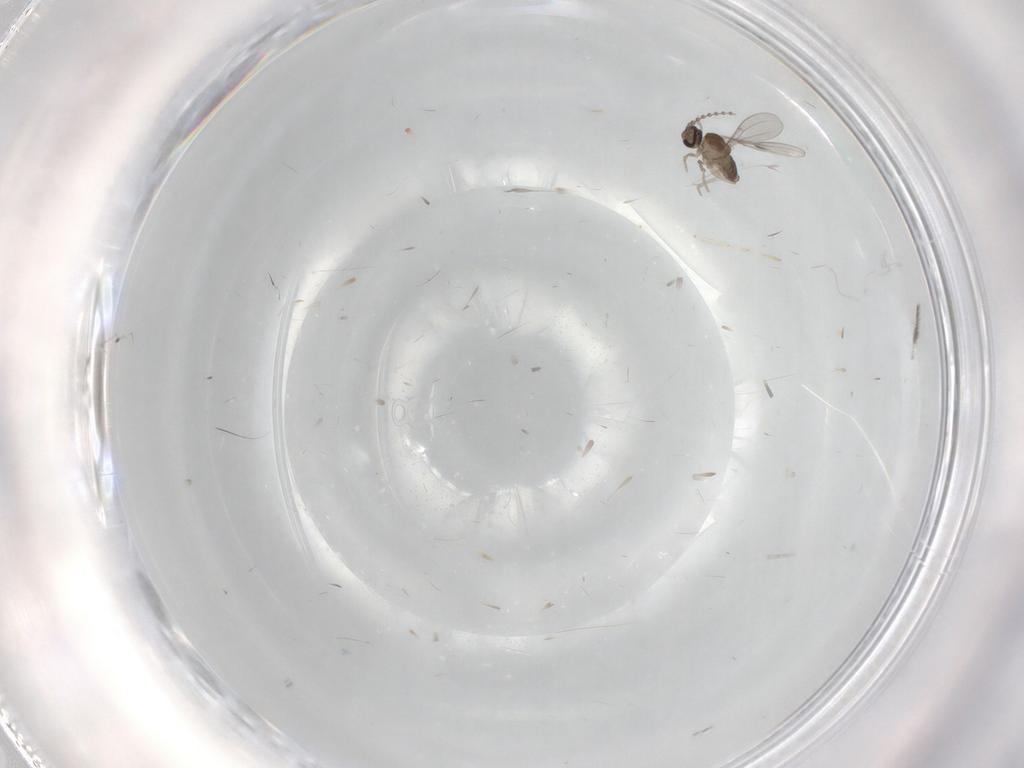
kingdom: Animalia
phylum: Arthropoda
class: Insecta
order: Diptera
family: Chironomidae
